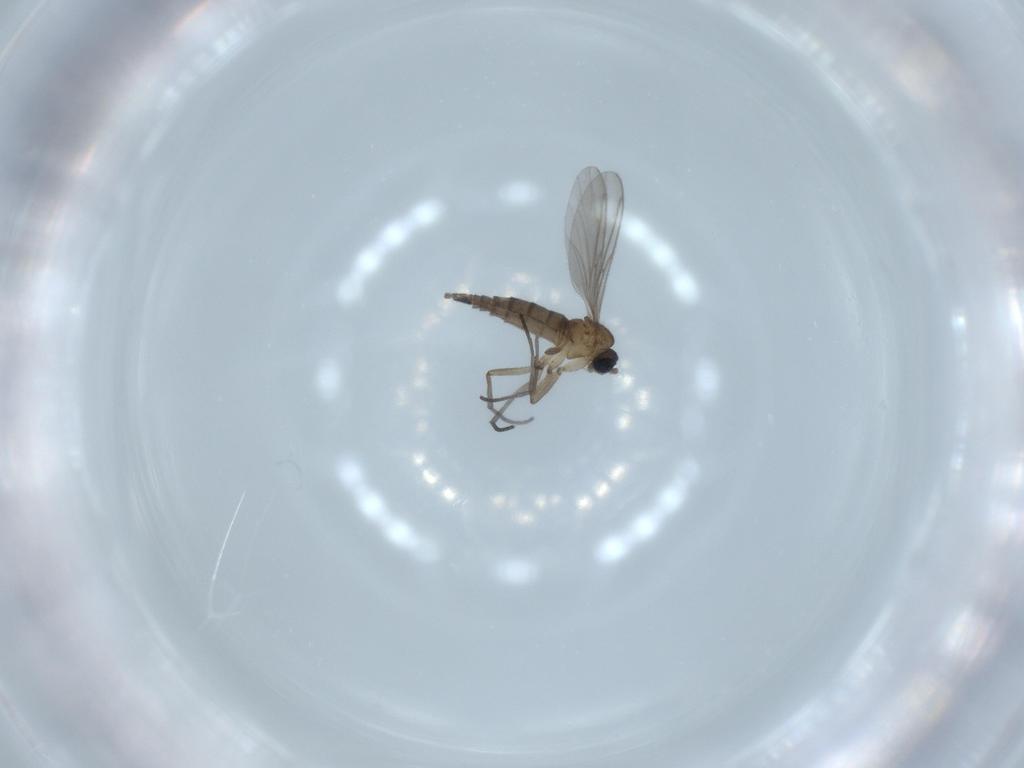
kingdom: Animalia
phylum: Arthropoda
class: Insecta
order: Diptera
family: Sciaridae
